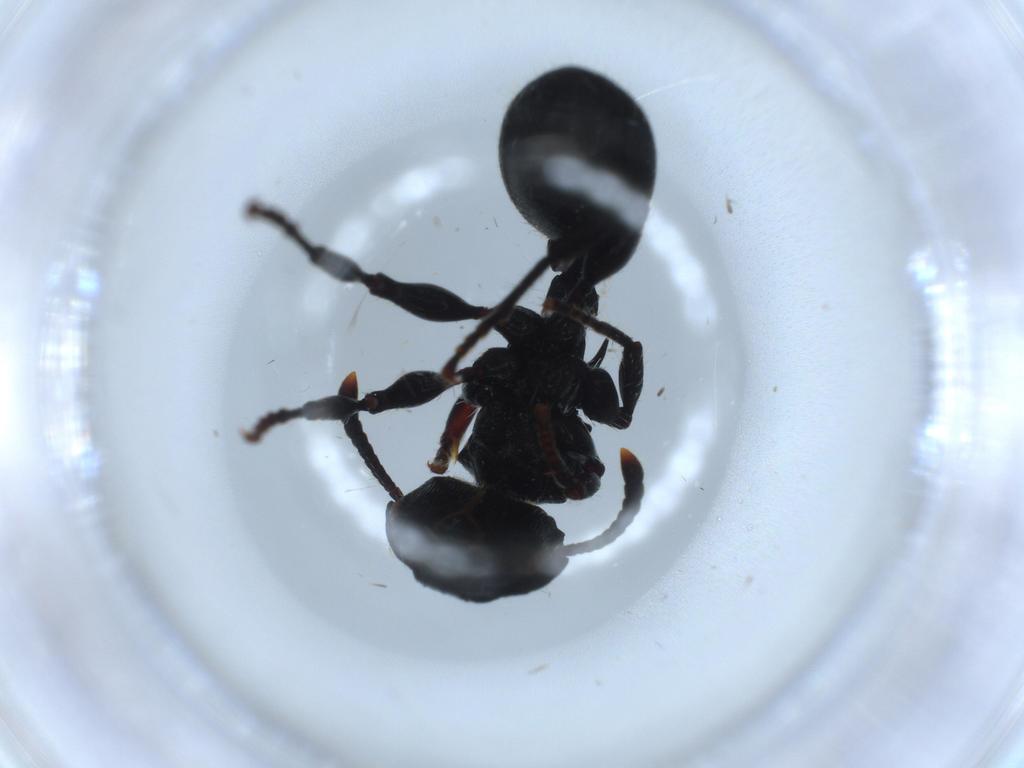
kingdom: Animalia
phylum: Arthropoda
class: Insecta
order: Hymenoptera
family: Formicidae
